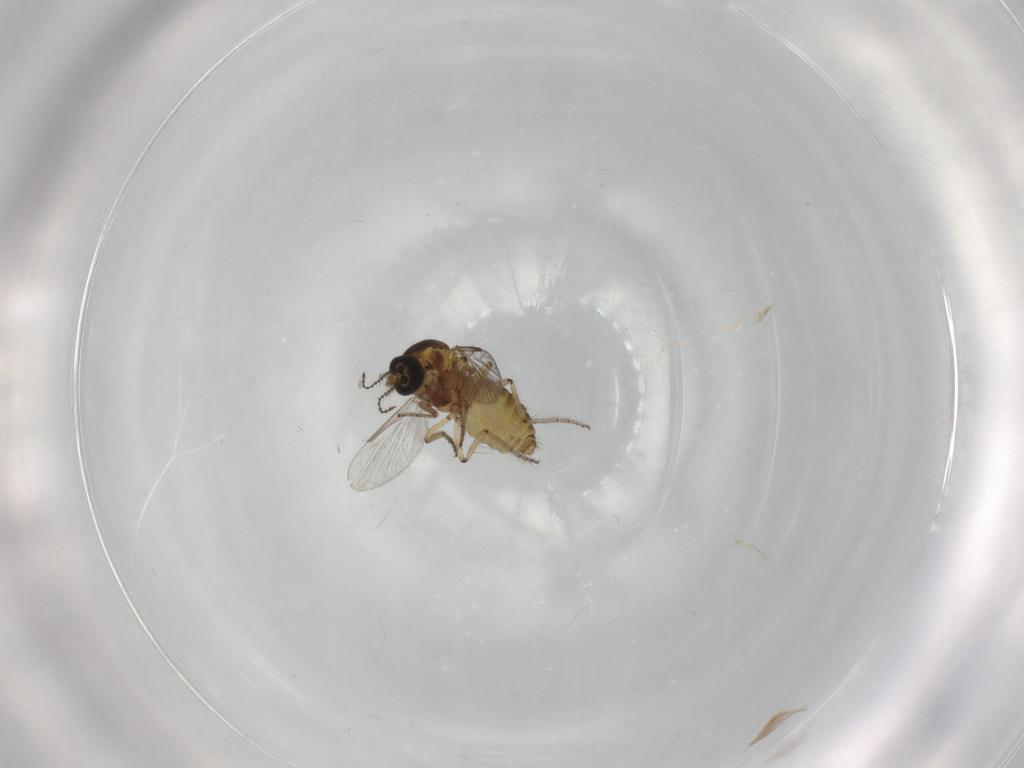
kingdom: Animalia
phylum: Arthropoda
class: Insecta
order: Diptera
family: Ceratopogonidae
